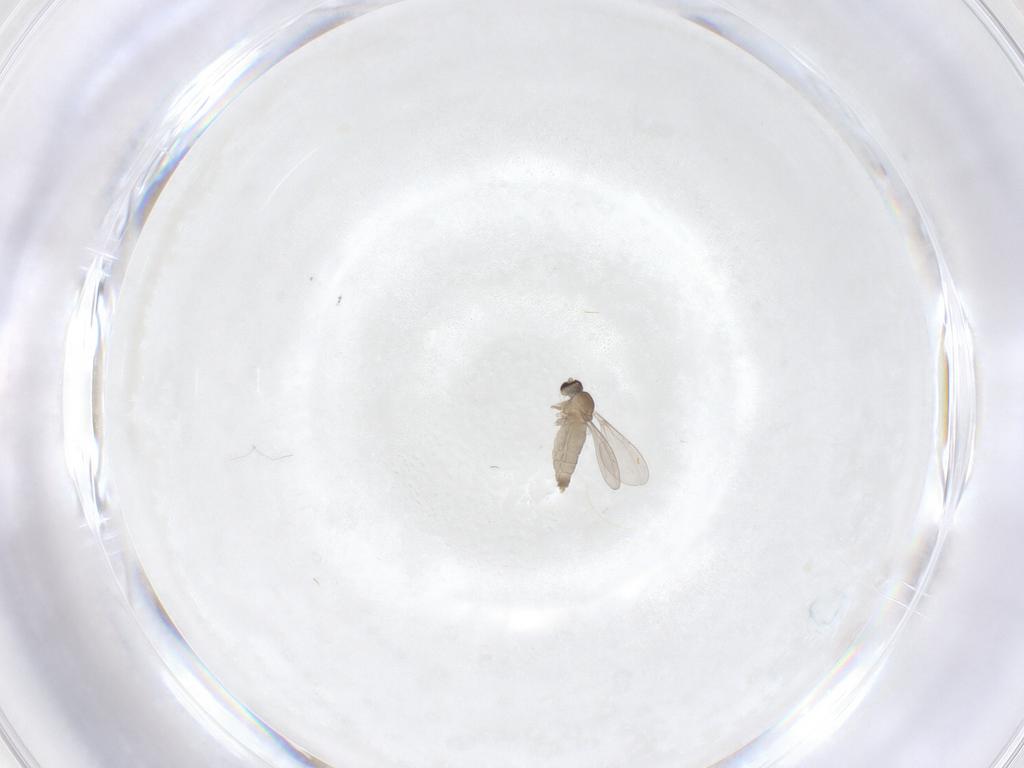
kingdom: Animalia
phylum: Arthropoda
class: Insecta
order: Diptera
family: Cecidomyiidae
